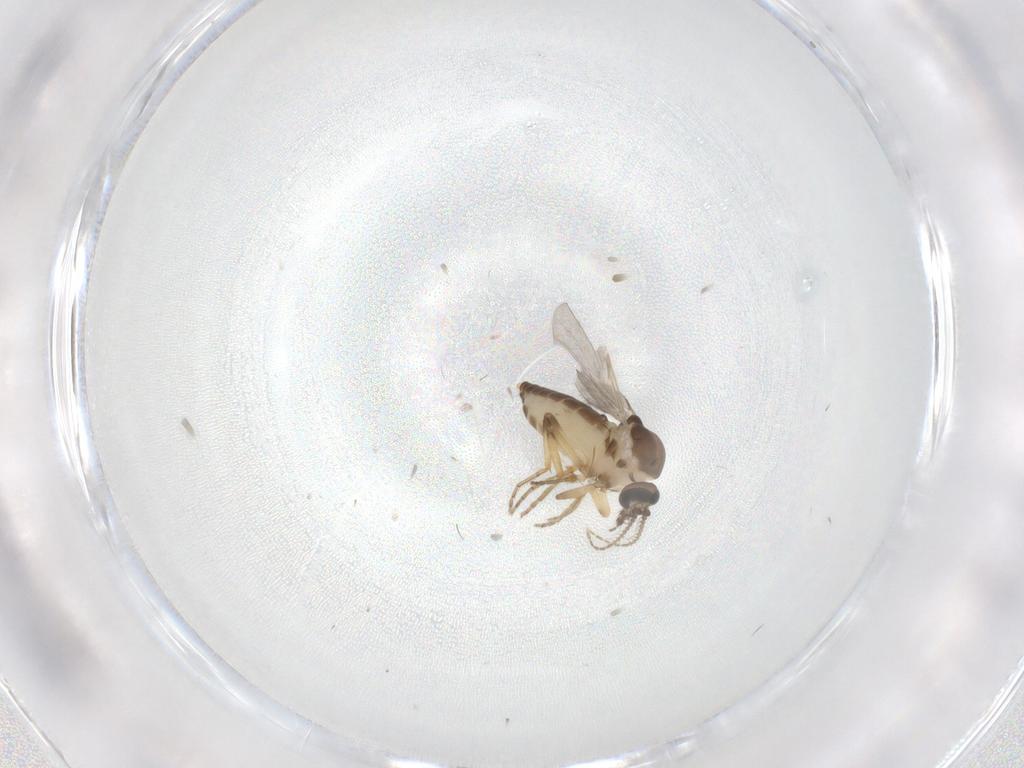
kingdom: Animalia
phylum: Arthropoda
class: Insecta
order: Diptera
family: Ceratopogonidae
